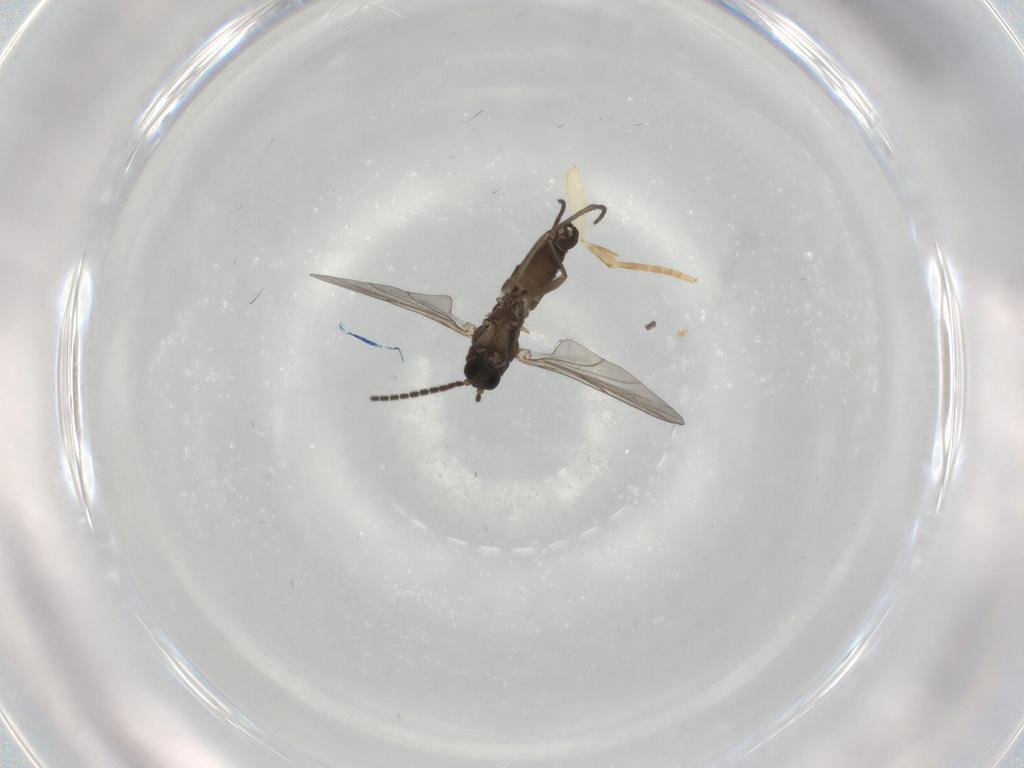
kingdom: Animalia
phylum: Arthropoda
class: Insecta
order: Diptera
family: Sciaridae
